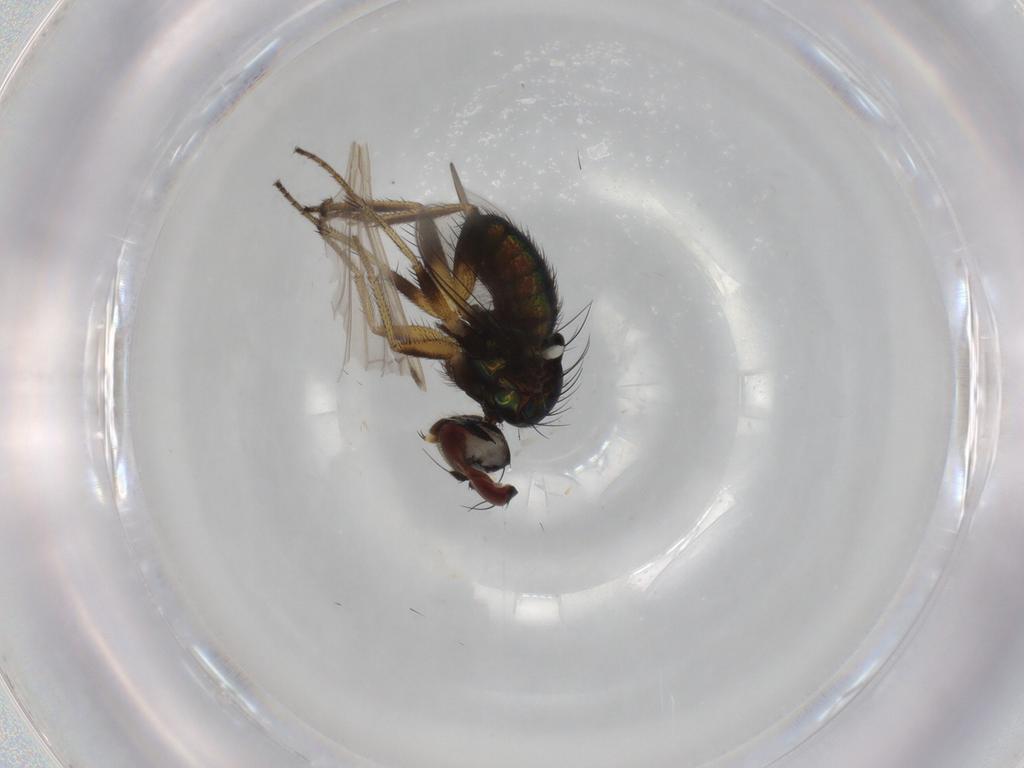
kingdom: Animalia
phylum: Arthropoda
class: Insecta
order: Diptera
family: Dolichopodidae
